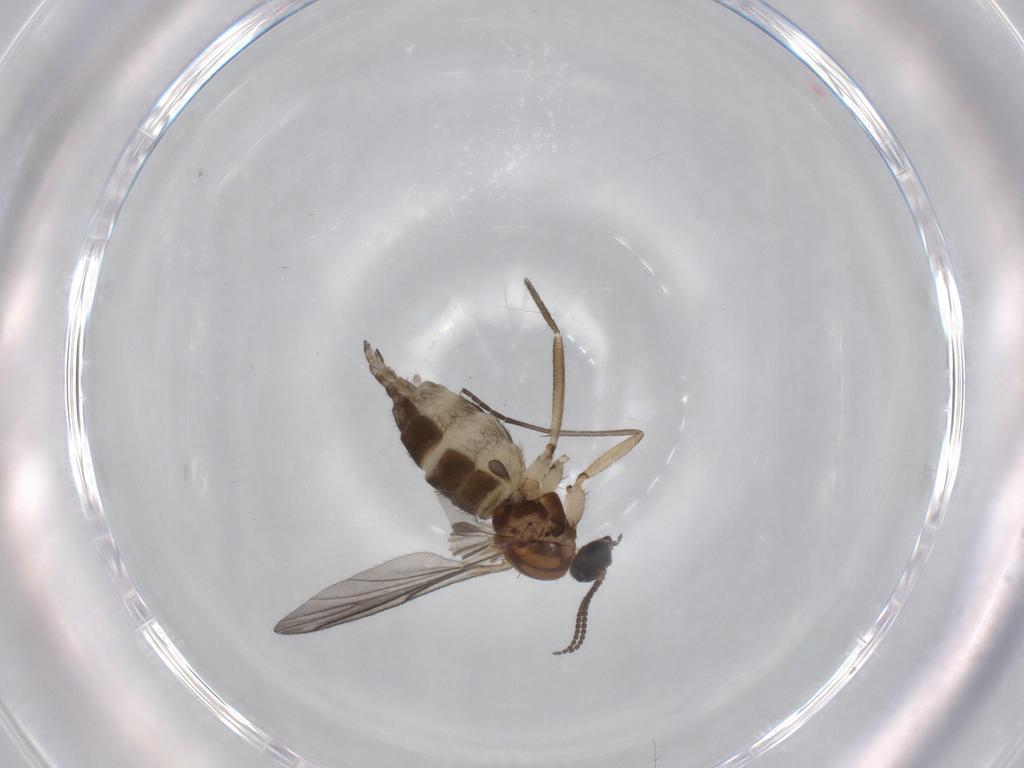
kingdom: Animalia
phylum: Arthropoda
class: Insecta
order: Diptera
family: Sciaridae
